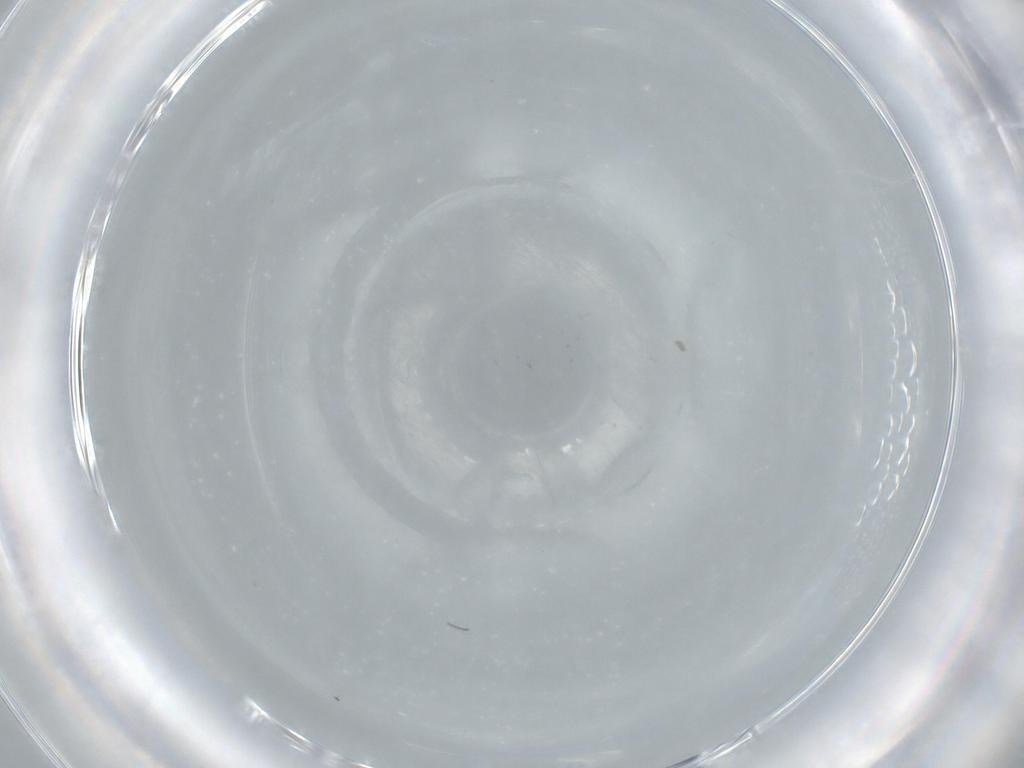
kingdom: Animalia
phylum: Arthropoda
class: Insecta
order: Diptera
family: Cecidomyiidae
